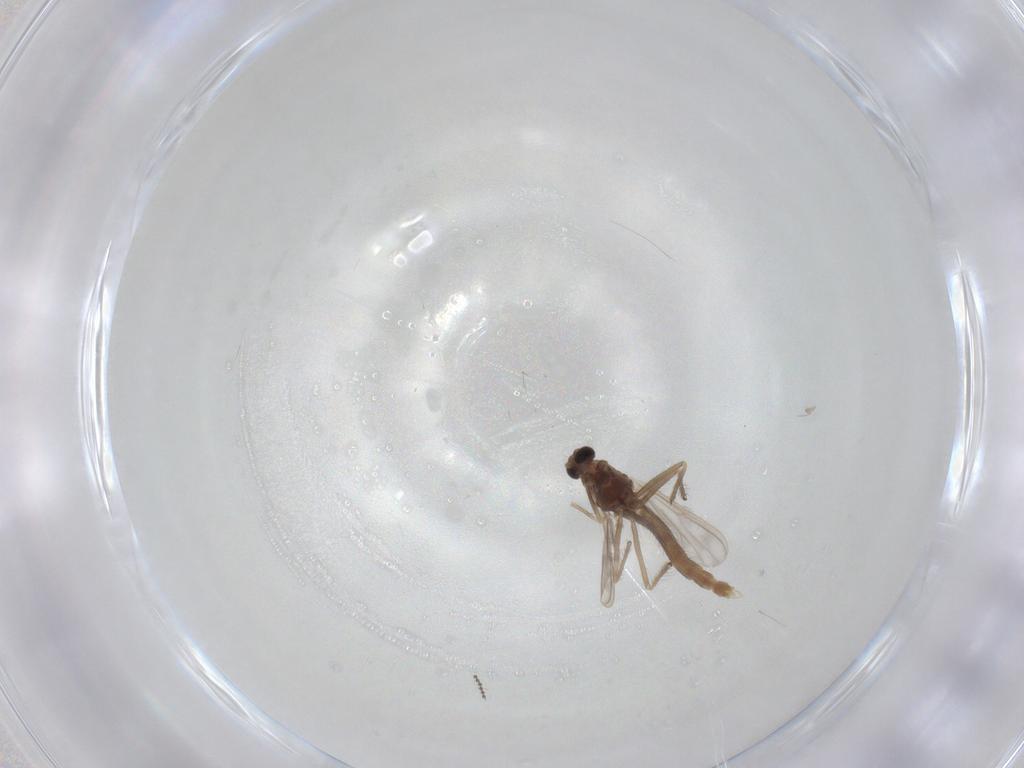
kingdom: Animalia
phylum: Arthropoda
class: Insecta
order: Diptera
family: Chironomidae
